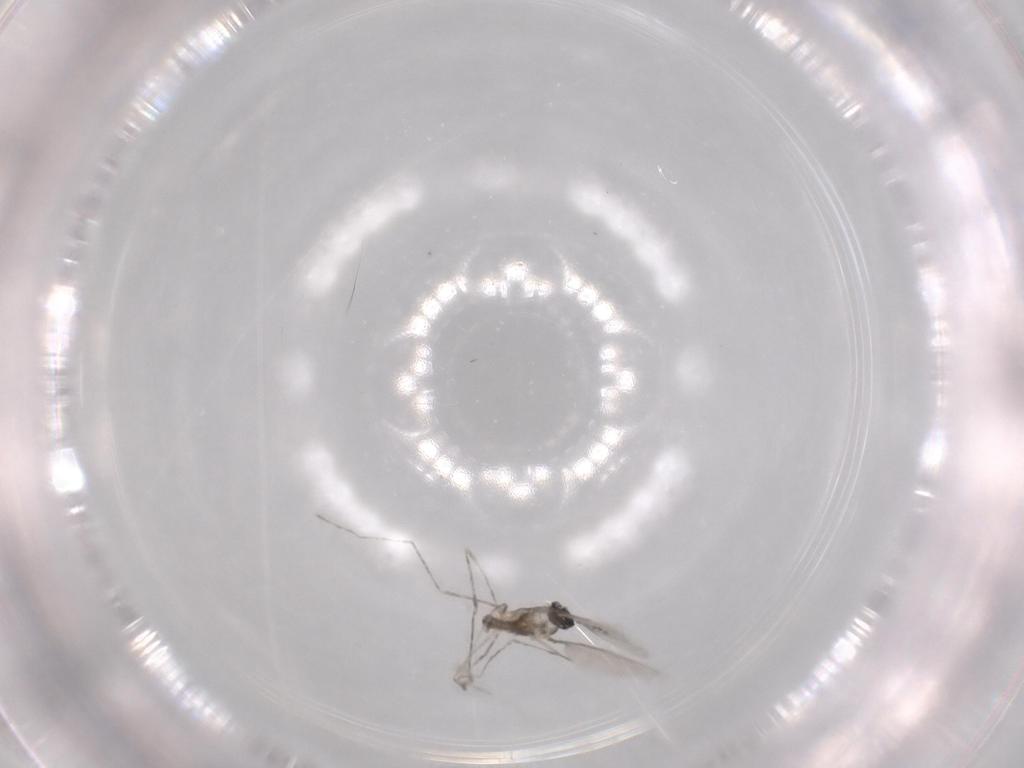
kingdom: Animalia
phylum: Arthropoda
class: Insecta
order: Diptera
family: Cecidomyiidae
